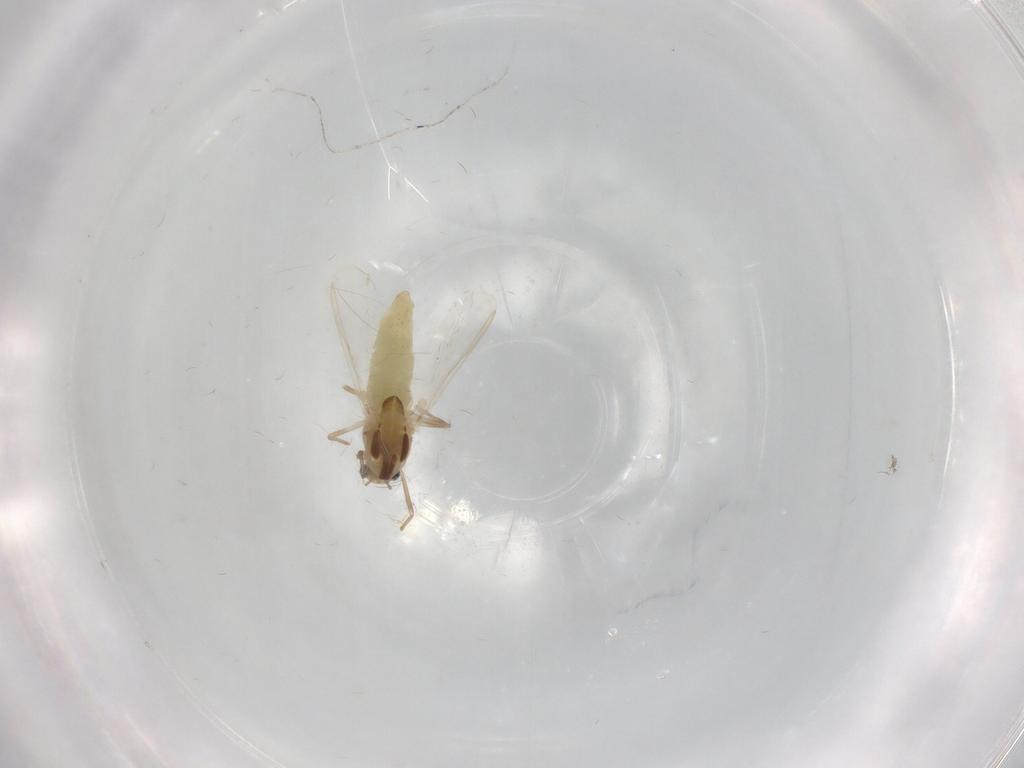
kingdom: Animalia
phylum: Arthropoda
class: Insecta
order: Diptera
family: Chironomidae
